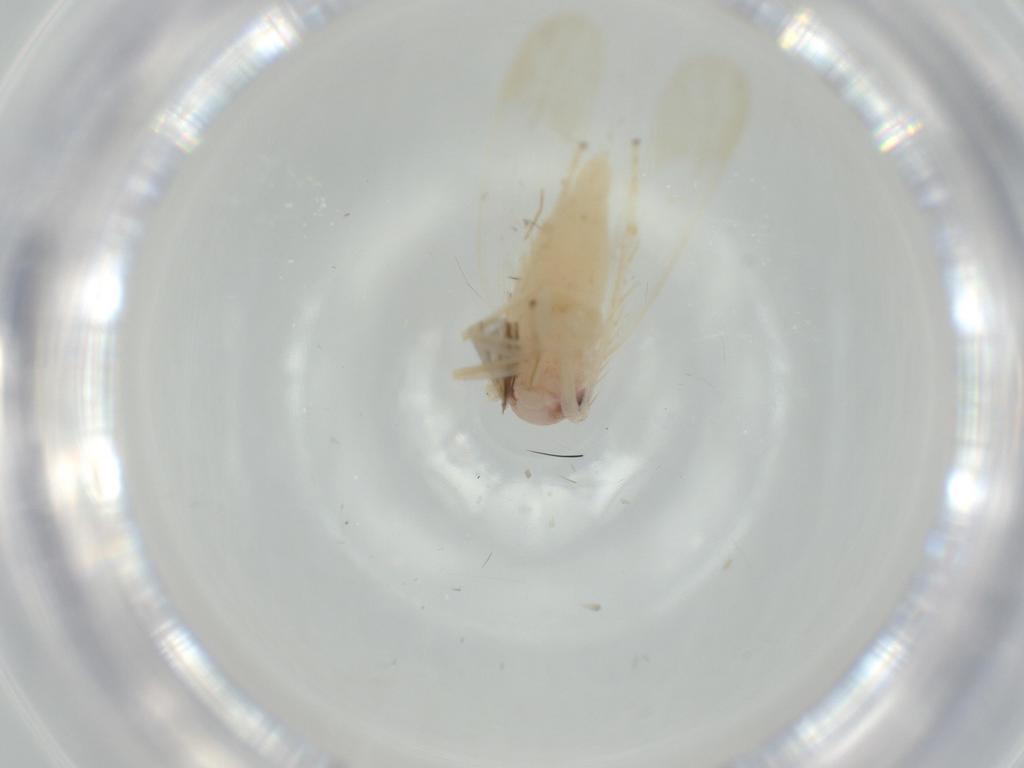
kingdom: Animalia
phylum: Arthropoda
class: Insecta
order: Hemiptera
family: Cicadellidae
